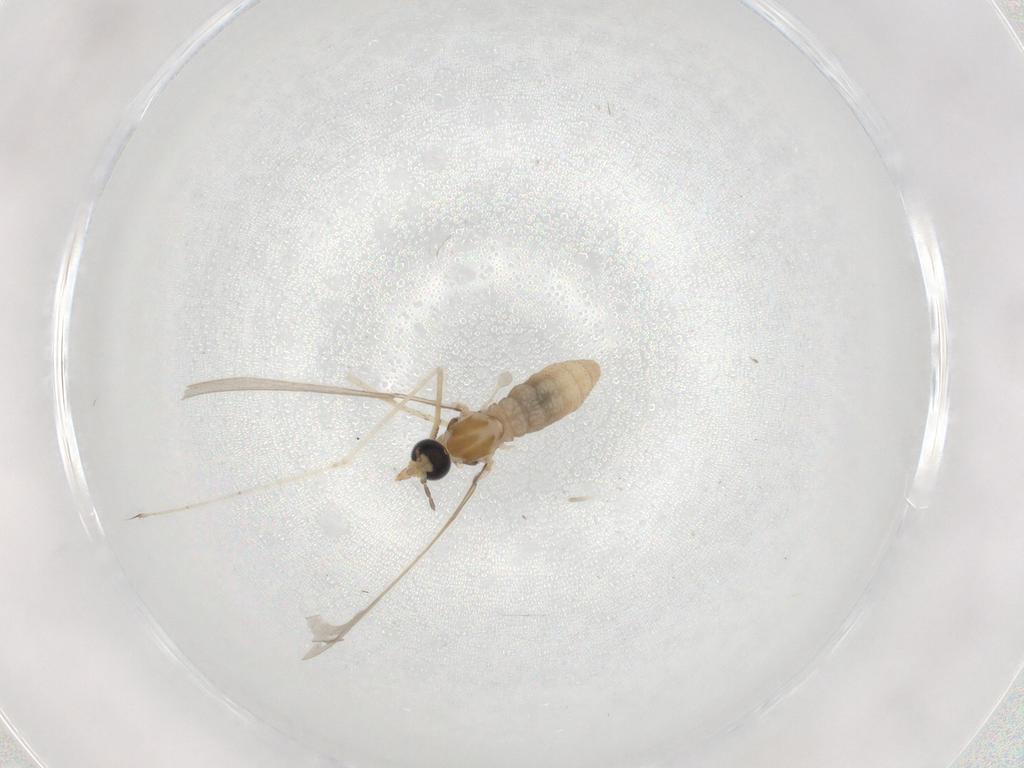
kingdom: Animalia
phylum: Arthropoda
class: Insecta
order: Diptera
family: Cecidomyiidae
